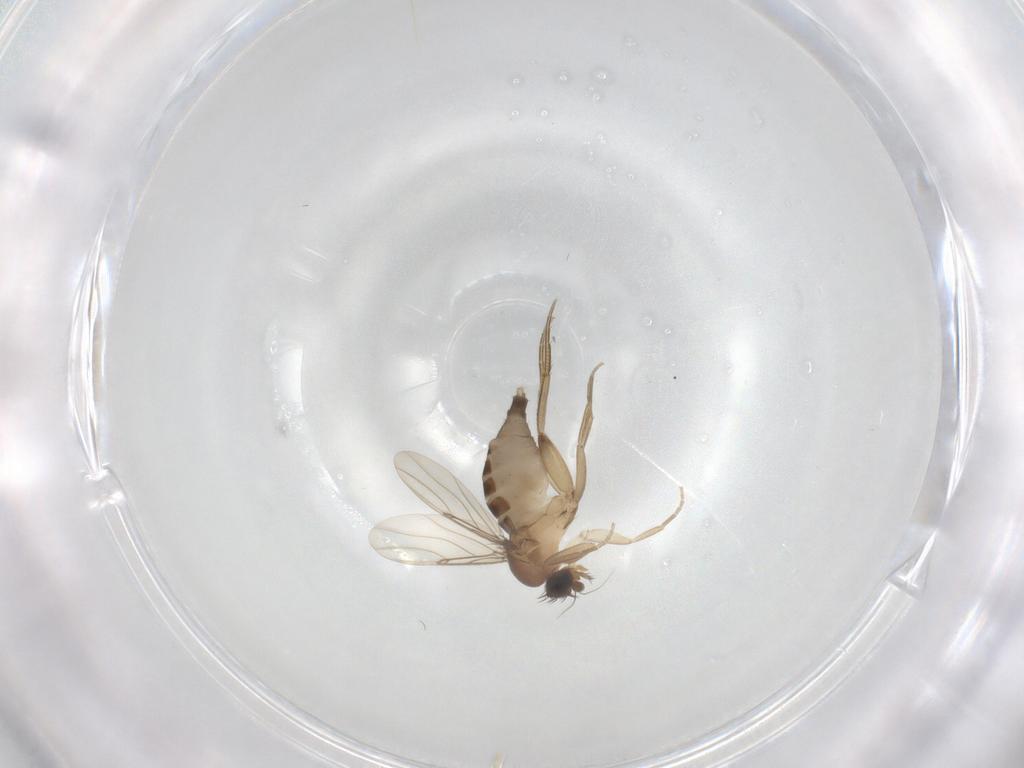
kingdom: Animalia
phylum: Arthropoda
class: Insecta
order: Diptera
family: Phoridae
